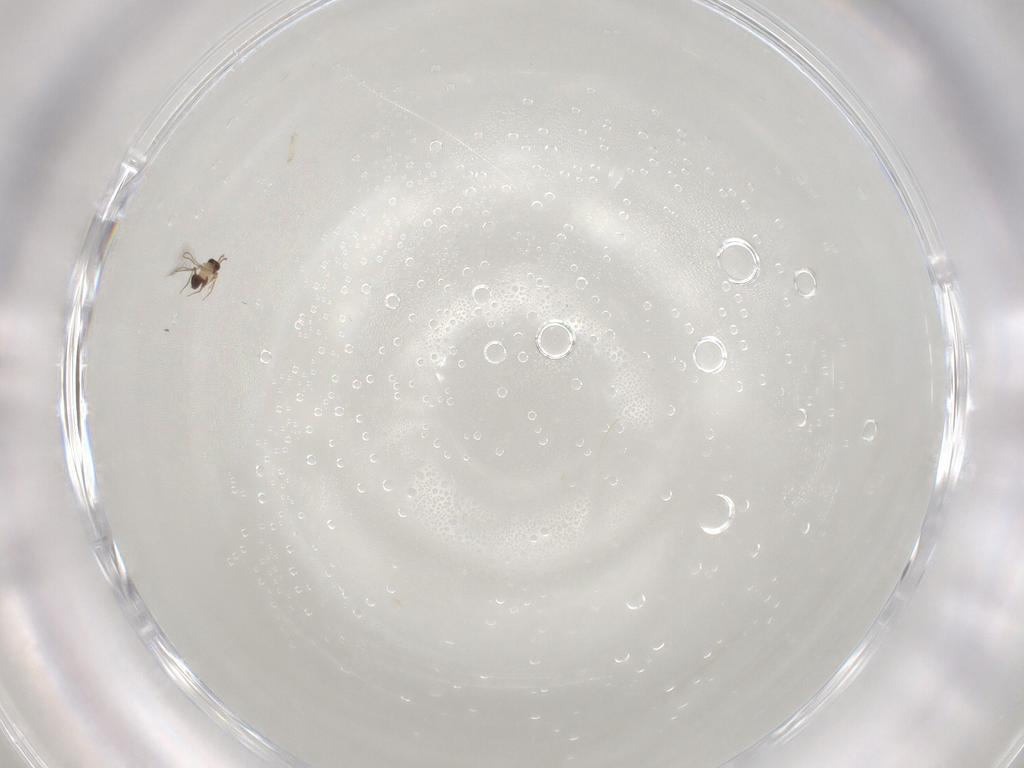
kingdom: Animalia
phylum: Arthropoda
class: Insecta
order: Hymenoptera
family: Mymaridae
